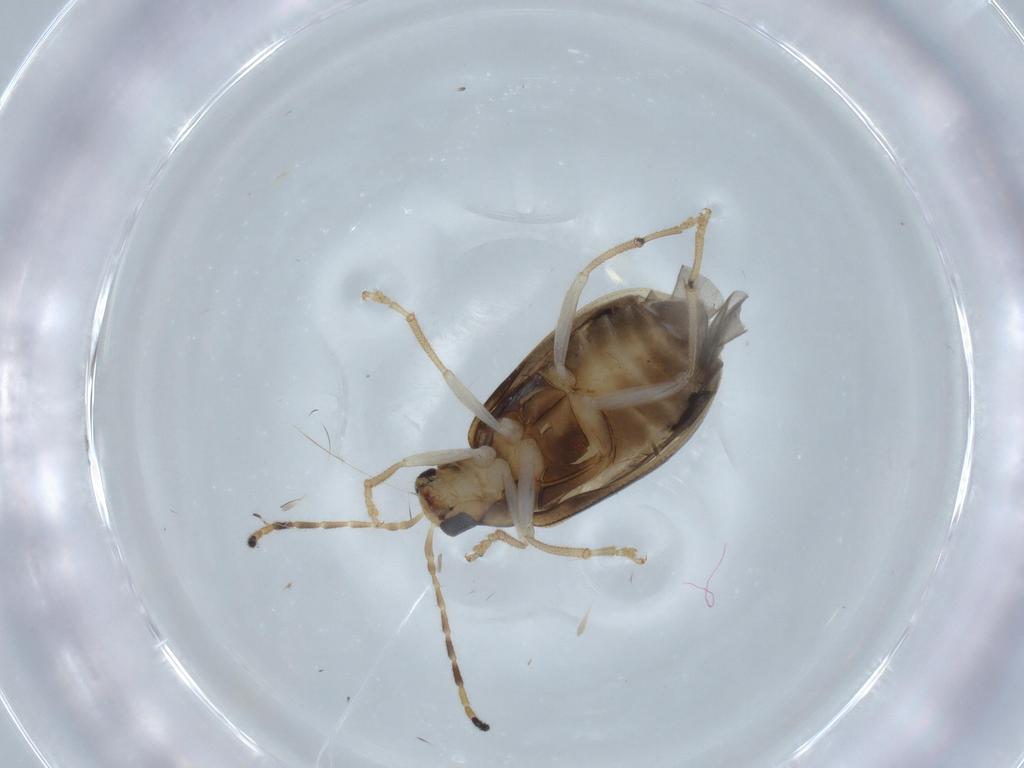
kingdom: Animalia
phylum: Arthropoda
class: Insecta
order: Coleoptera
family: Chrysomelidae
